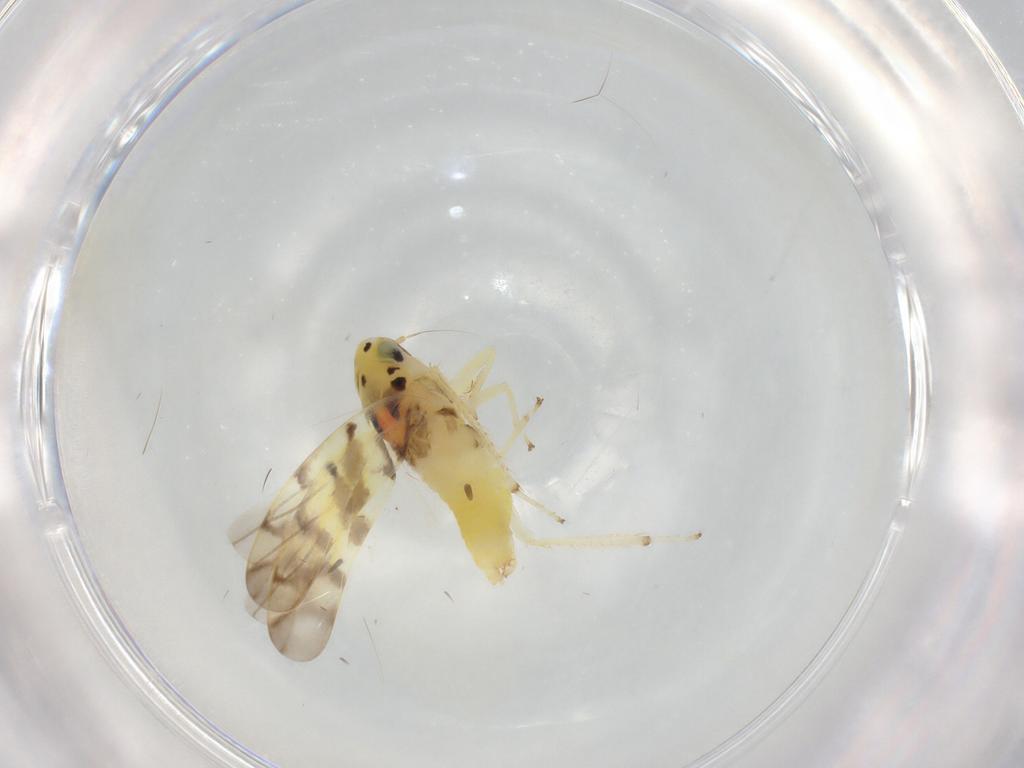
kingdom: Animalia
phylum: Arthropoda
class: Insecta
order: Hemiptera
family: Cicadellidae
